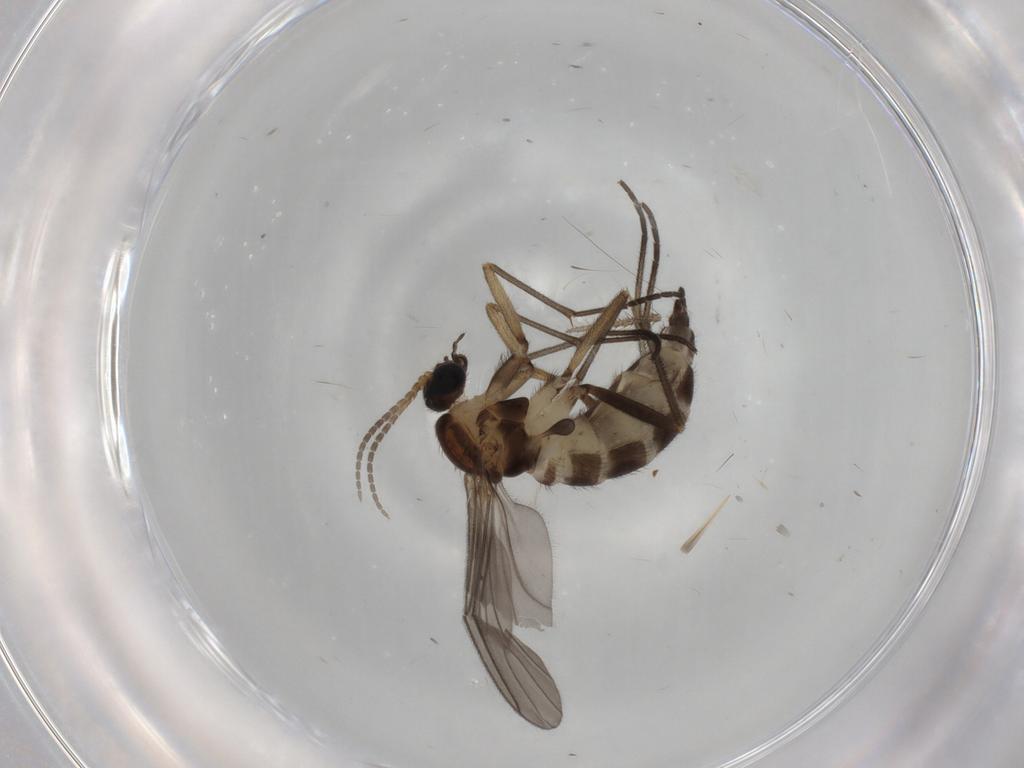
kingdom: Animalia
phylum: Arthropoda
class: Insecta
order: Diptera
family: Sciaridae
